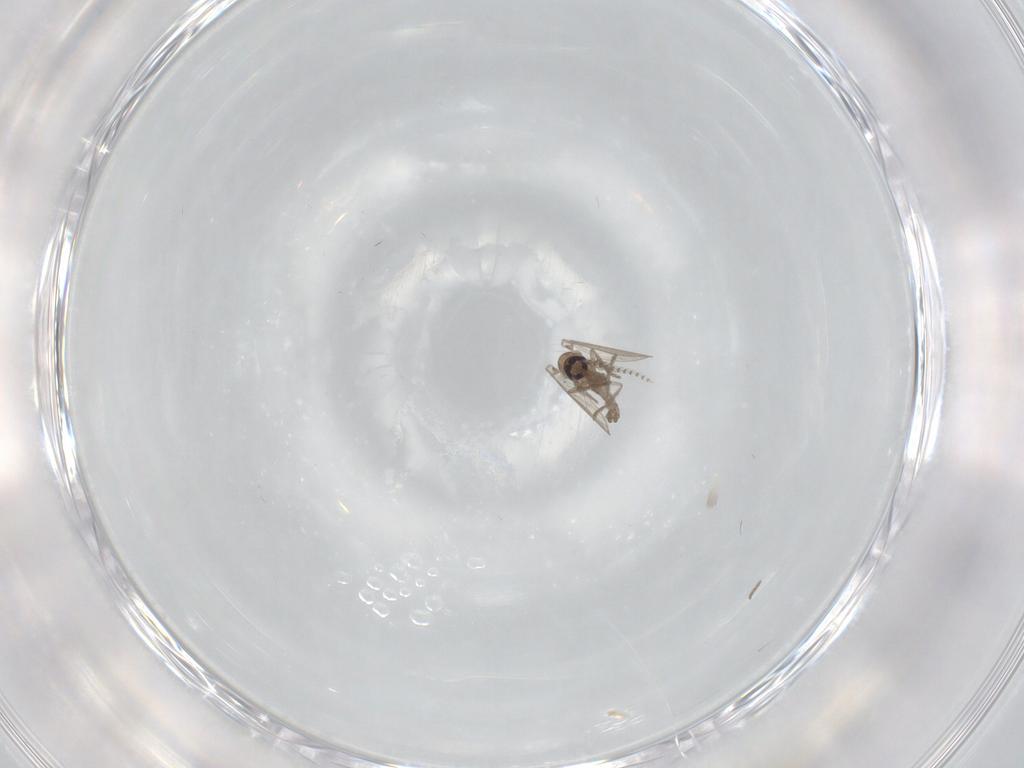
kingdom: Animalia
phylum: Arthropoda
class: Insecta
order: Diptera
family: Psychodidae
